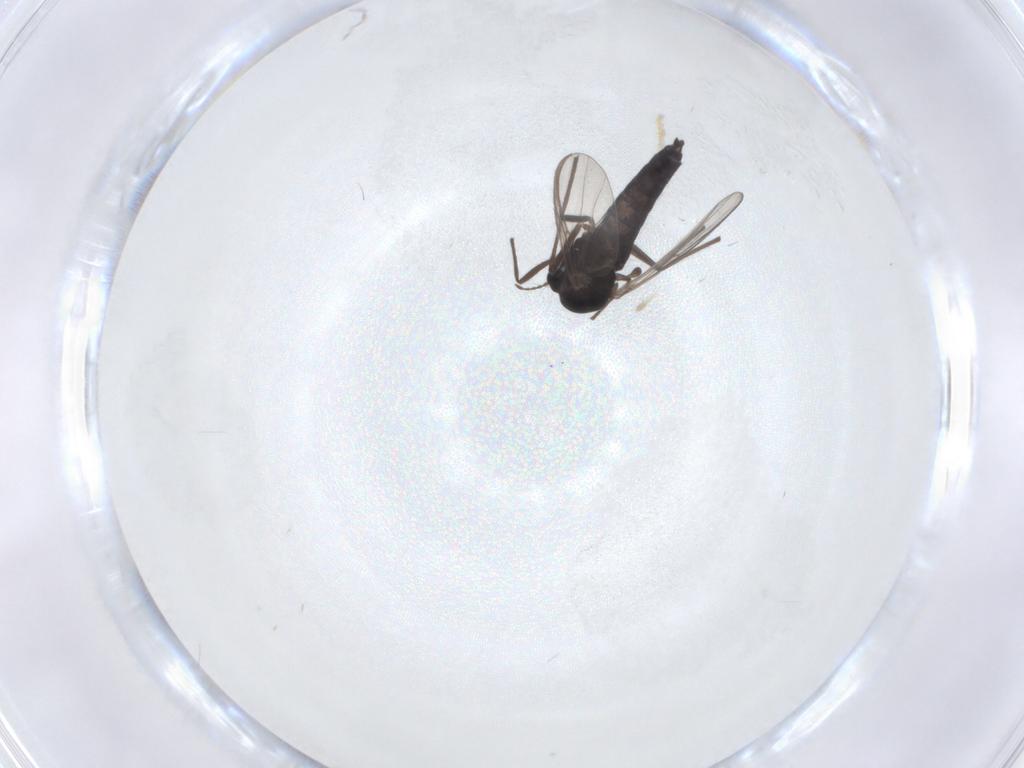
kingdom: Animalia
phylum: Arthropoda
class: Insecta
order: Diptera
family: Chironomidae
